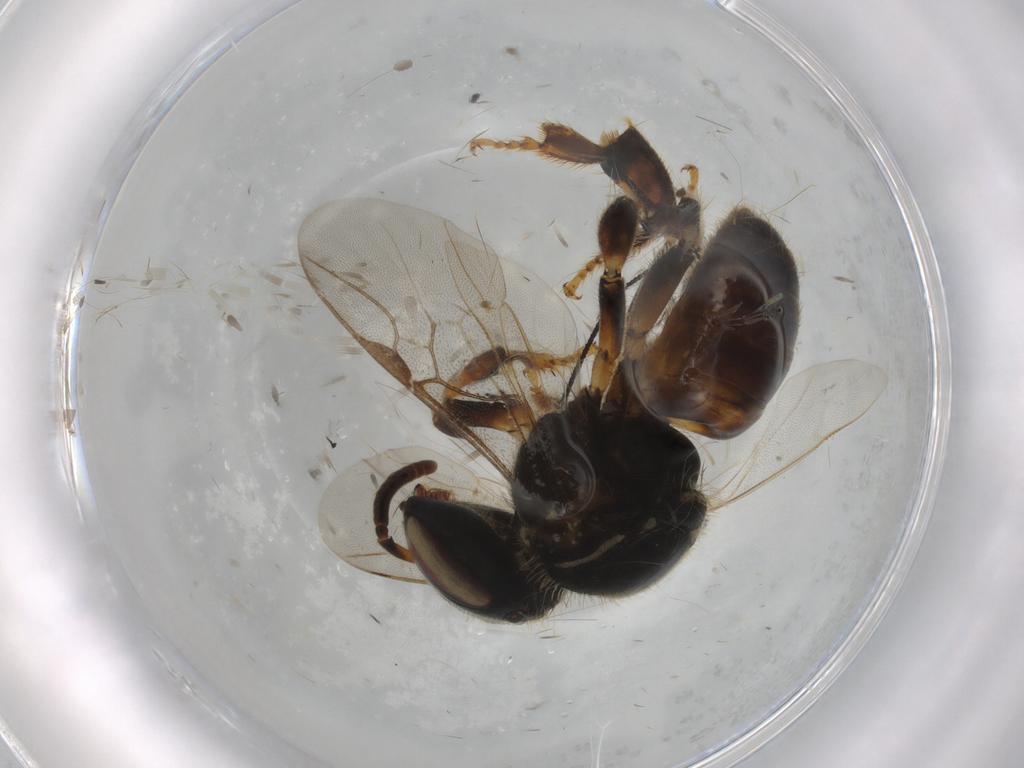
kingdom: Animalia
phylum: Arthropoda
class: Insecta
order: Hymenoptera
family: Apidae
